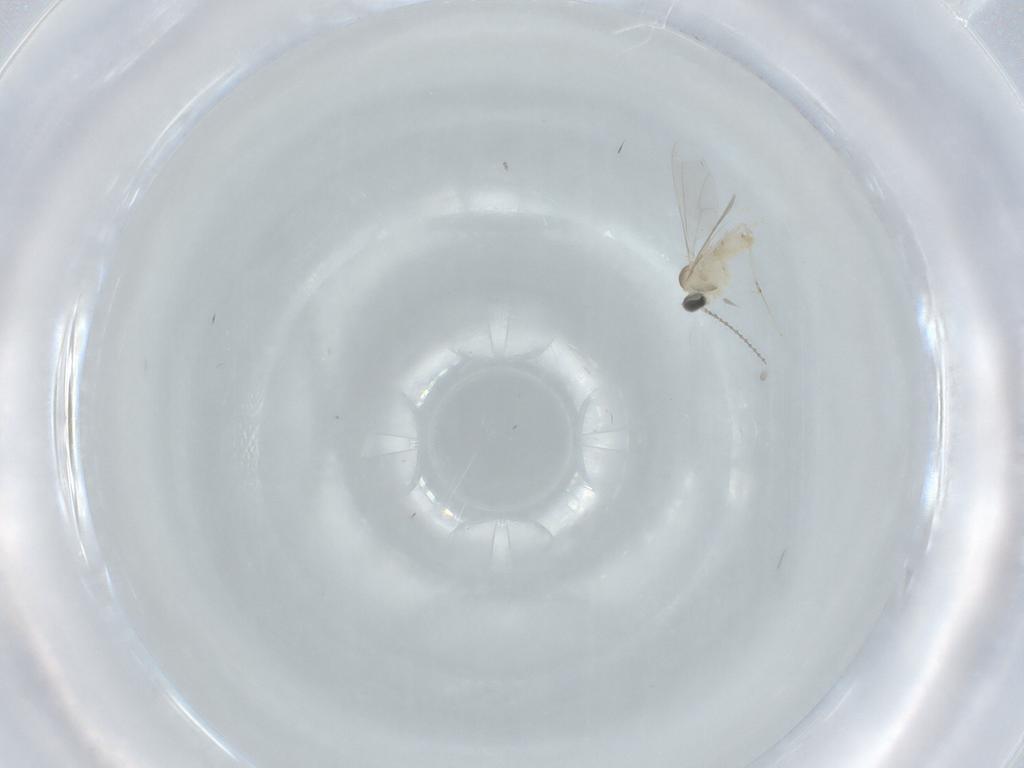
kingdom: Animalia
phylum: Arthropoda
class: Insecta
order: Diptera
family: Cecidomyiidae
